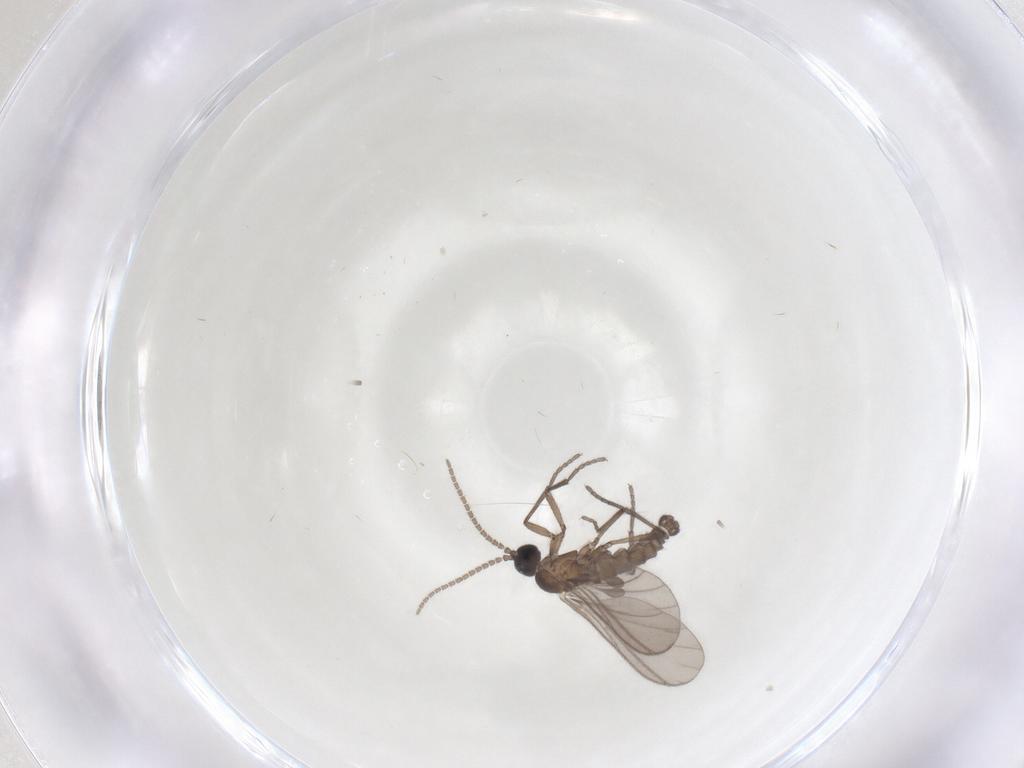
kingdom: Animalia
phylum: Arthropoda
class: Insecta
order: Diptera
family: Sciaridae
